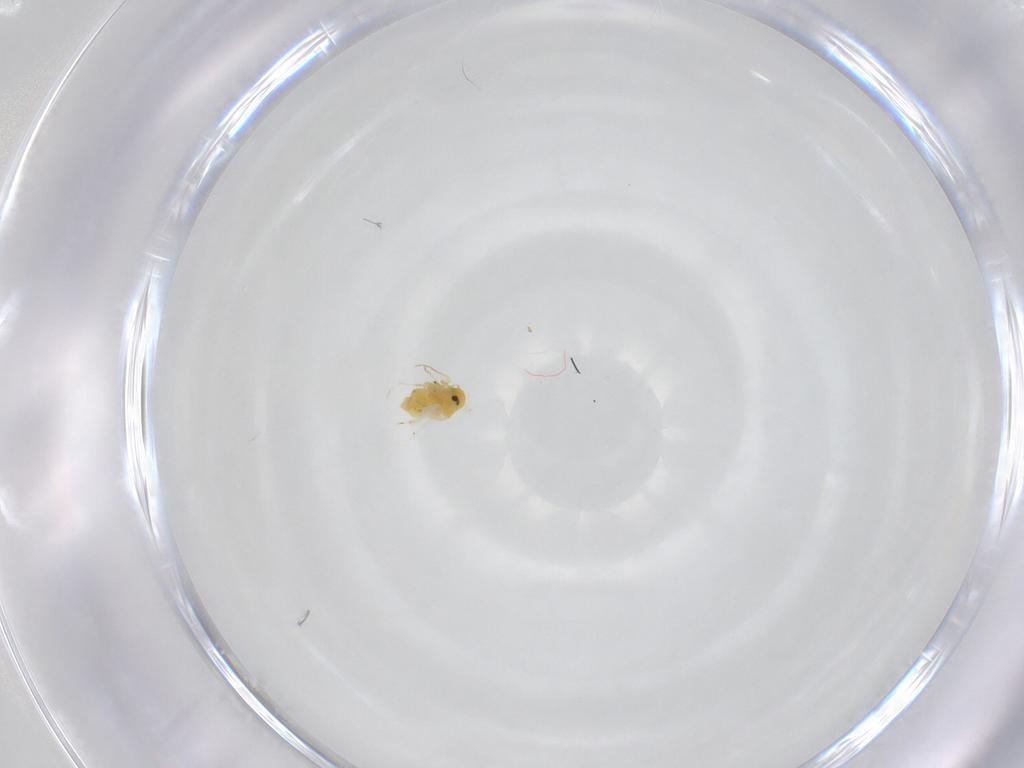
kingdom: Animalia
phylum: Arthropoda
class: Insecta
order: Hemiptera
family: Aleyrodidae
